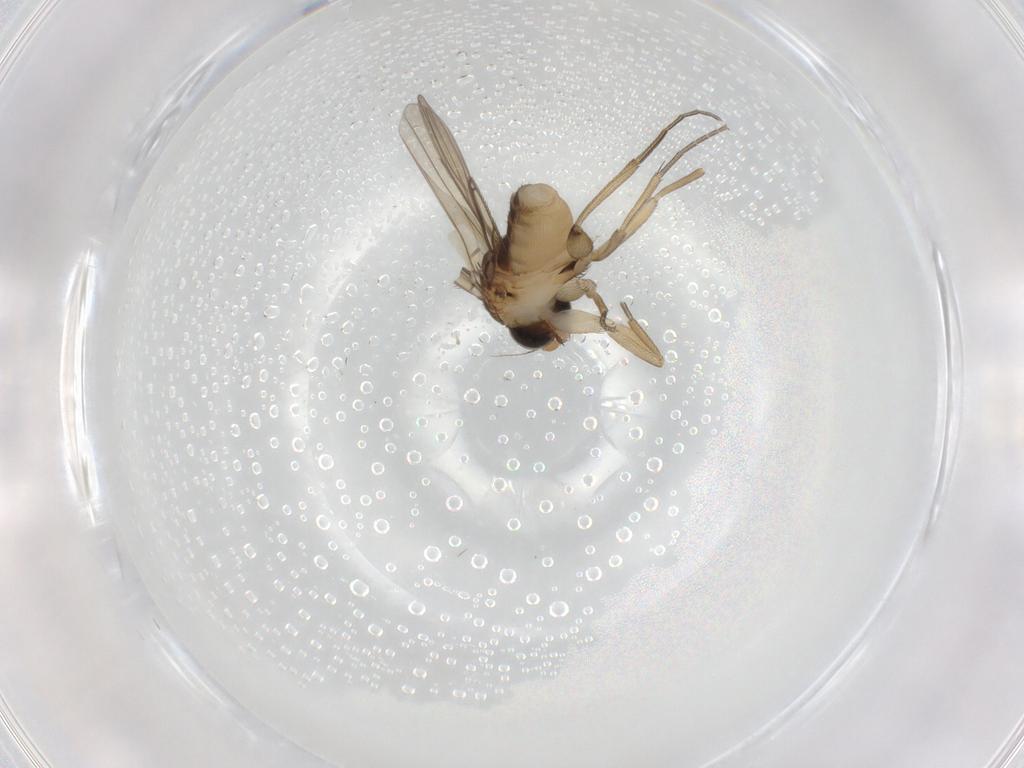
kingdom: Animalia
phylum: Arthropoda
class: Insecta
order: Diptera
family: Phoridae
